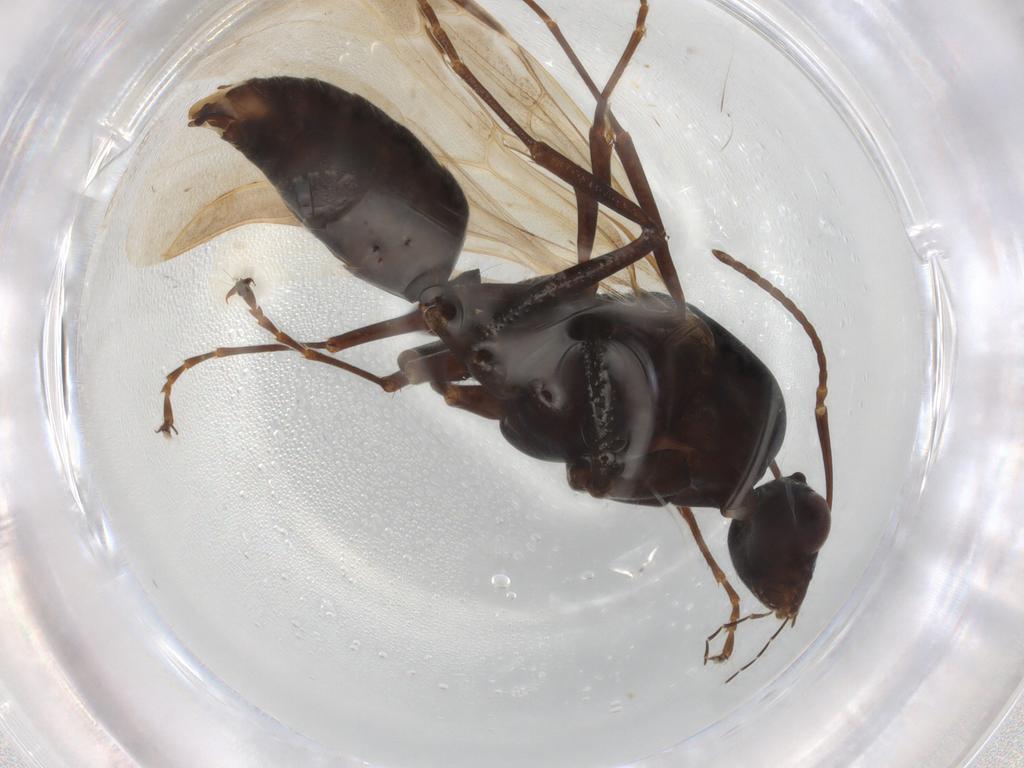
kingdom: Animalia
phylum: Arthropoda
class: Insecta
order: Hymenoptera
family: Formicidae
